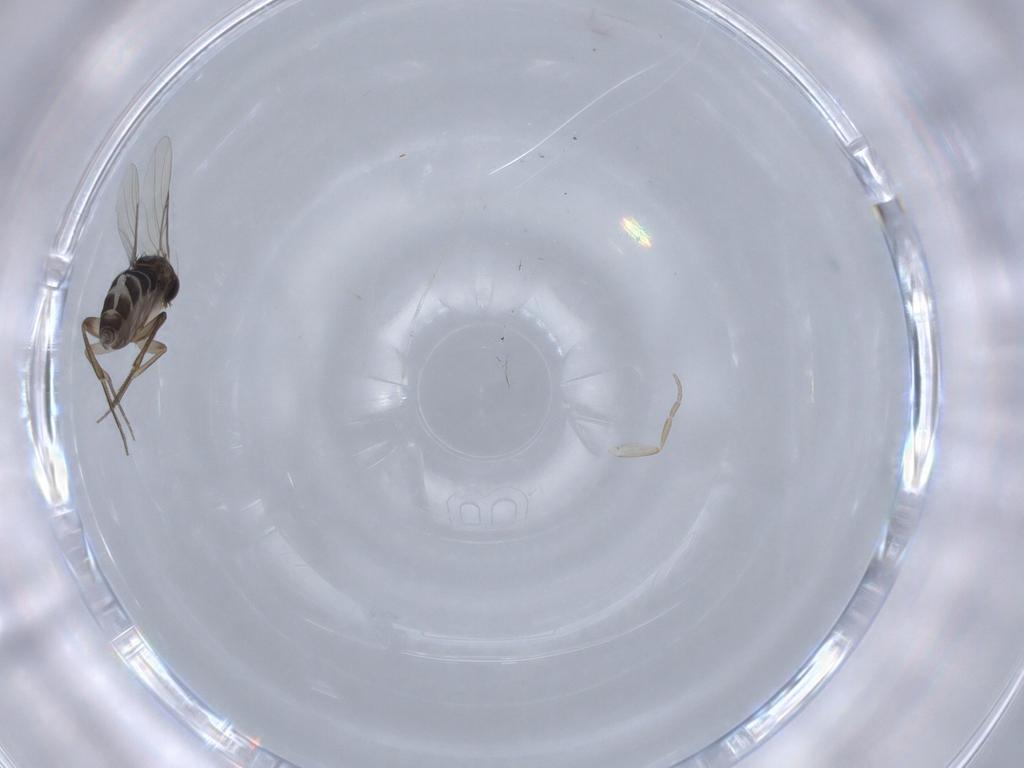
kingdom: Animalia
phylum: Arthropoda
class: Insecta
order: Diptera
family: Phoridae
